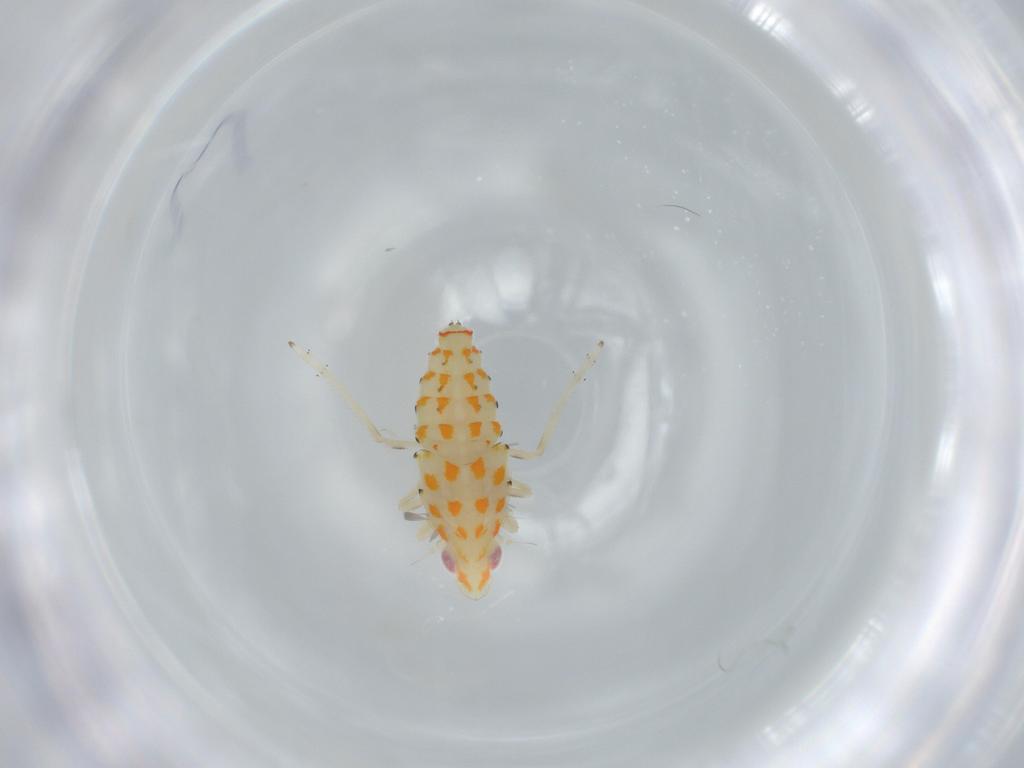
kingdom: Animalia
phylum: Arthropoda
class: Insecta
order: Hemiptera
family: Tropiduchidae
